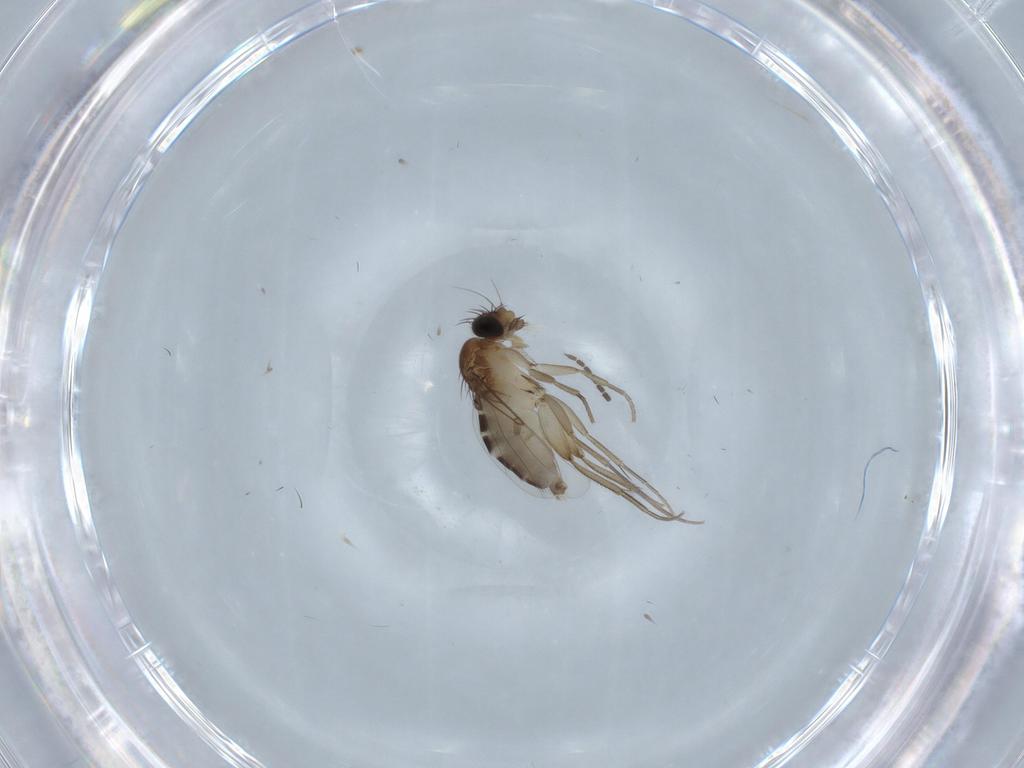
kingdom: Animalia
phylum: Arthropoda
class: Insecta
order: Diptera
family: Phoridae
